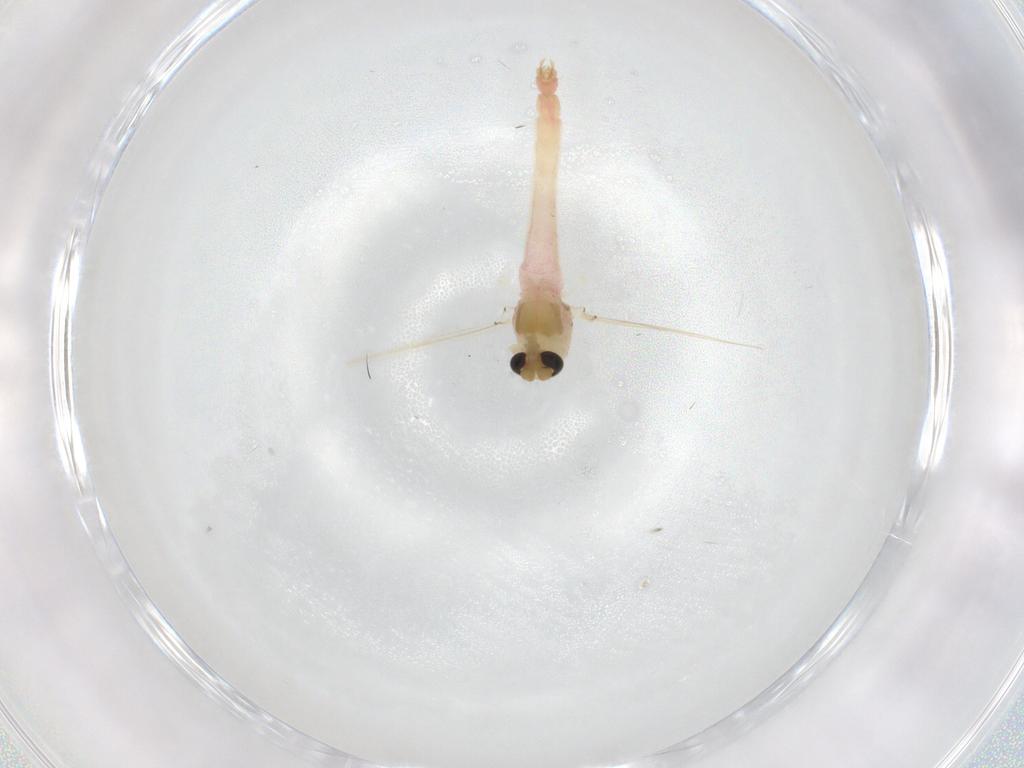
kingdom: Animalia
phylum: Arthropoda
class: Insecta
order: Diptera
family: Chironomidae
